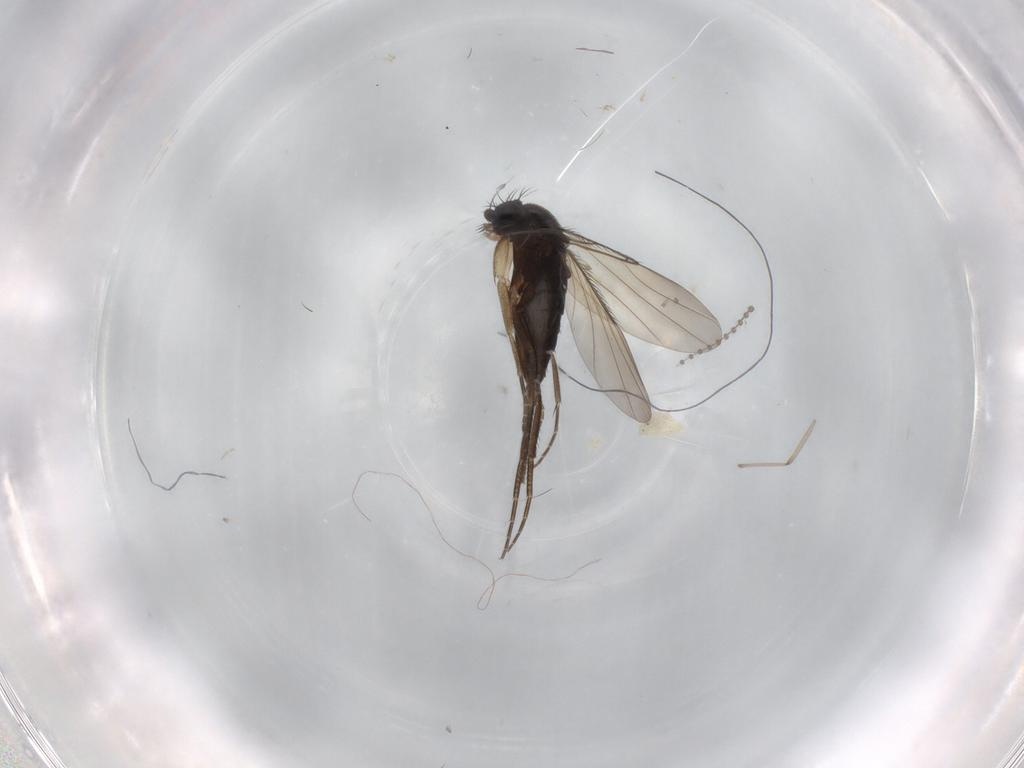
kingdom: Animalia
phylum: Arthropoda
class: Insecta
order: Diptera
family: Phoridae
